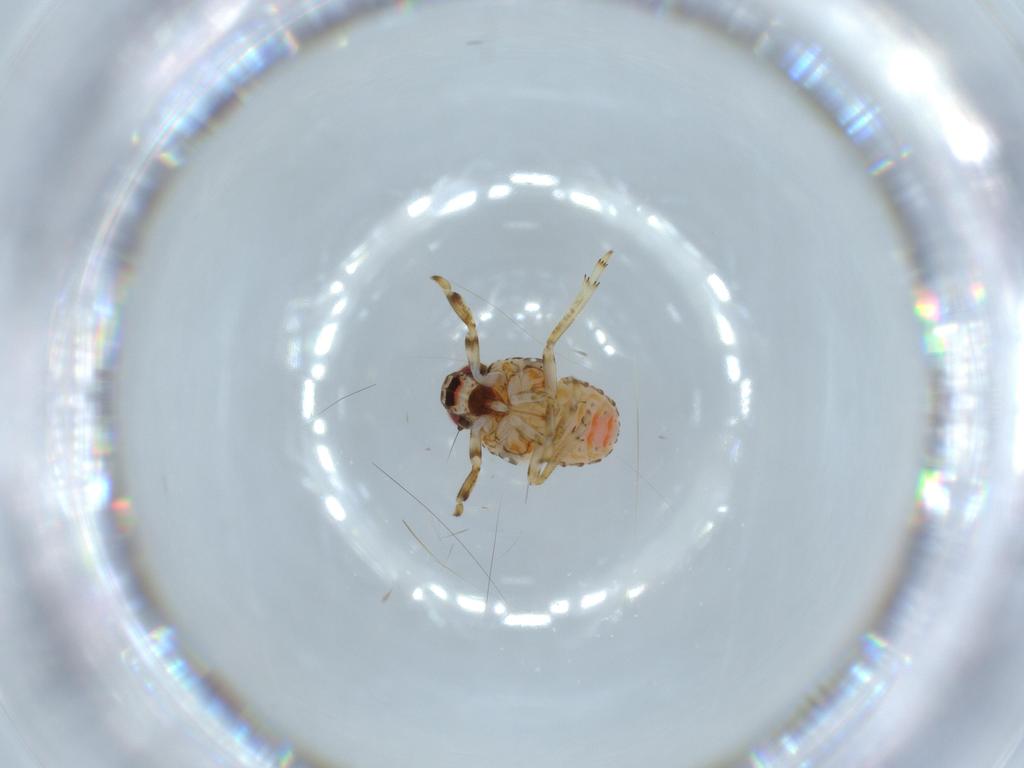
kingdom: Animalia
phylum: Arthropoda
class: Insecta
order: Hemiptera
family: Issidae
